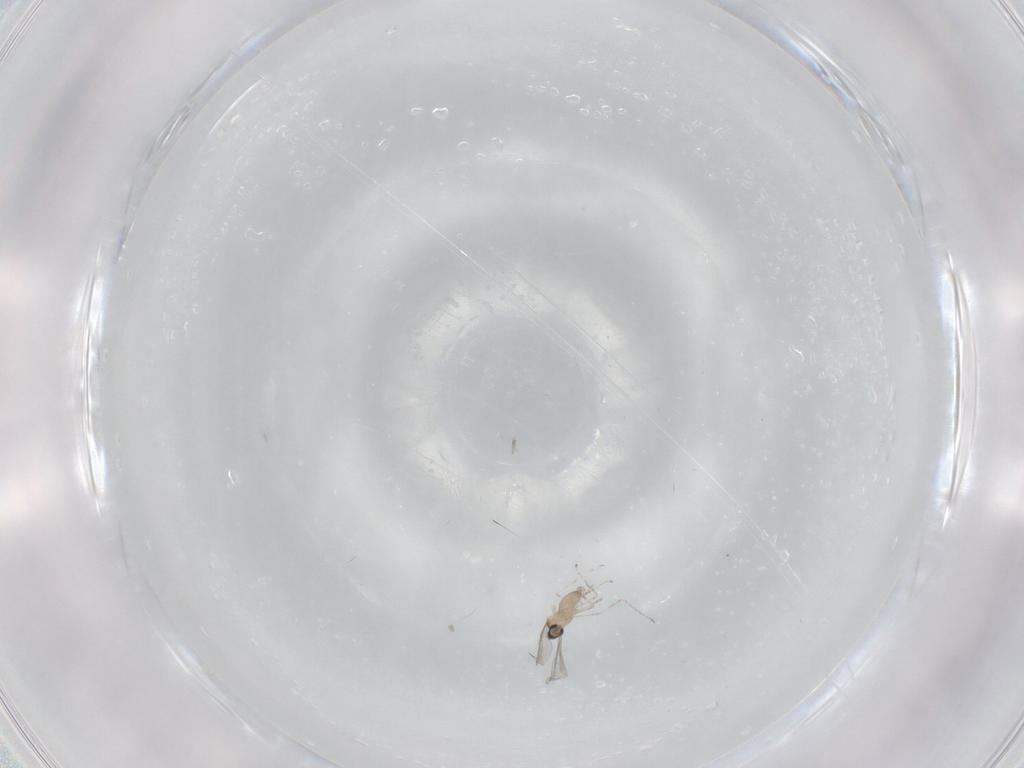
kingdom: Animalia
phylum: Arthropoda
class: Insecta
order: Diptera
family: Cecidomyiidae
